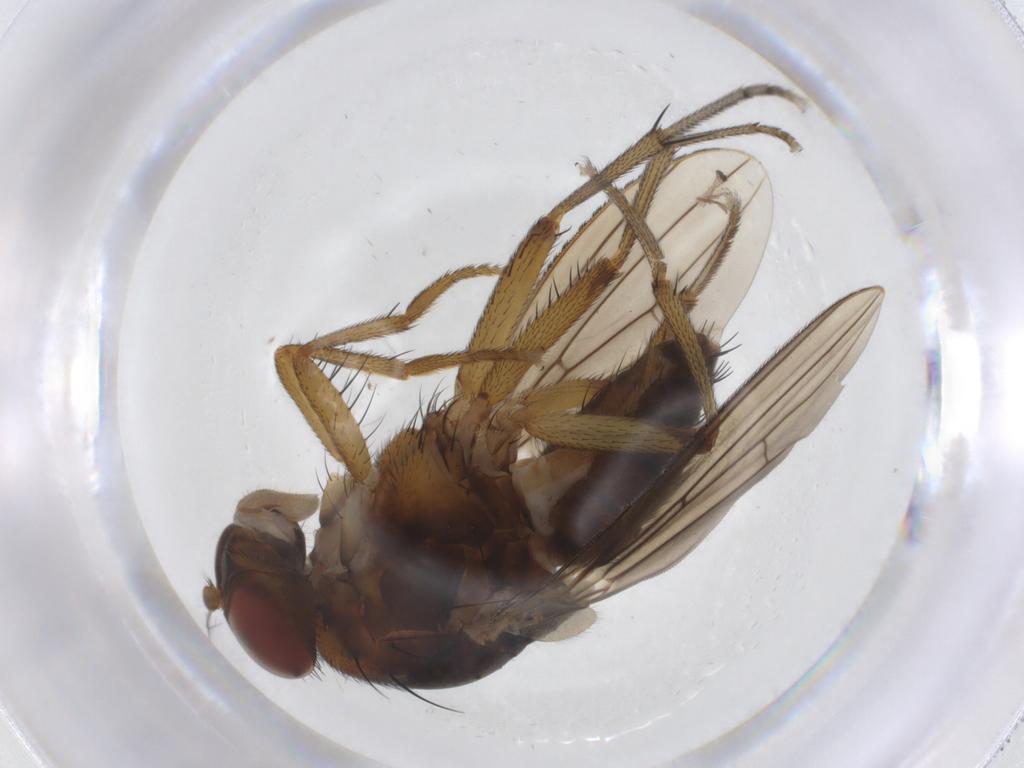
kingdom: Animalia
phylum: Arthropoda
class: Insecta
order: Diptera
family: Lauxaniidae
